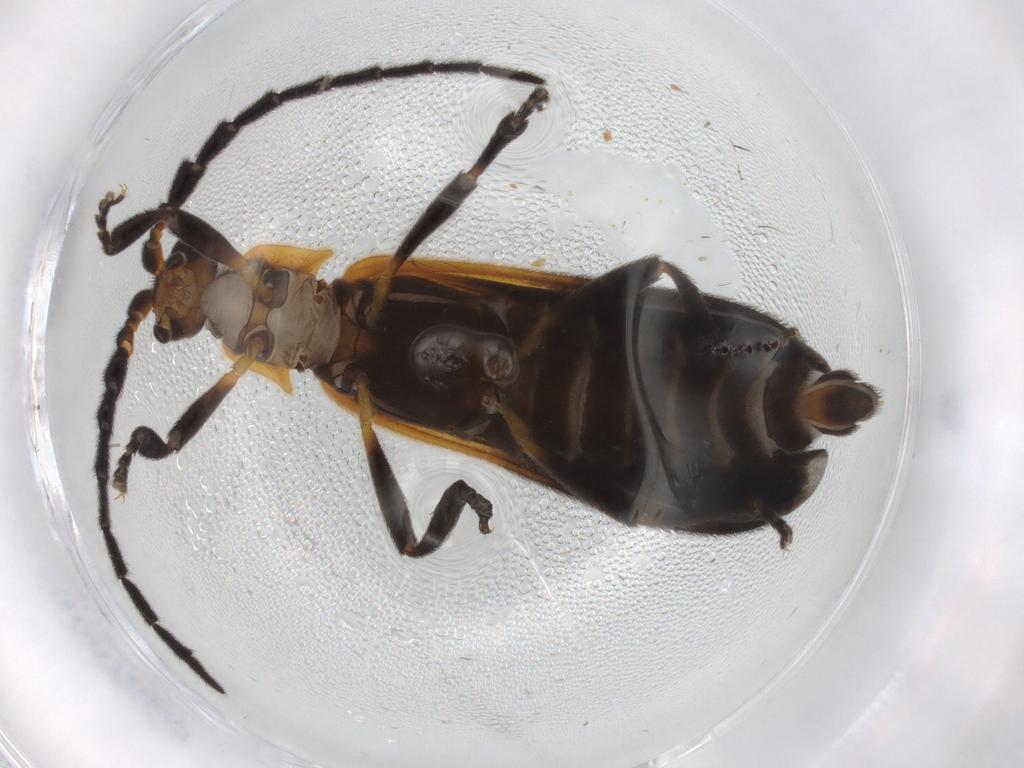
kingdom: Animalia
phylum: Arthropoda
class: Insecta
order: Coleoptera
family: Lycidae
